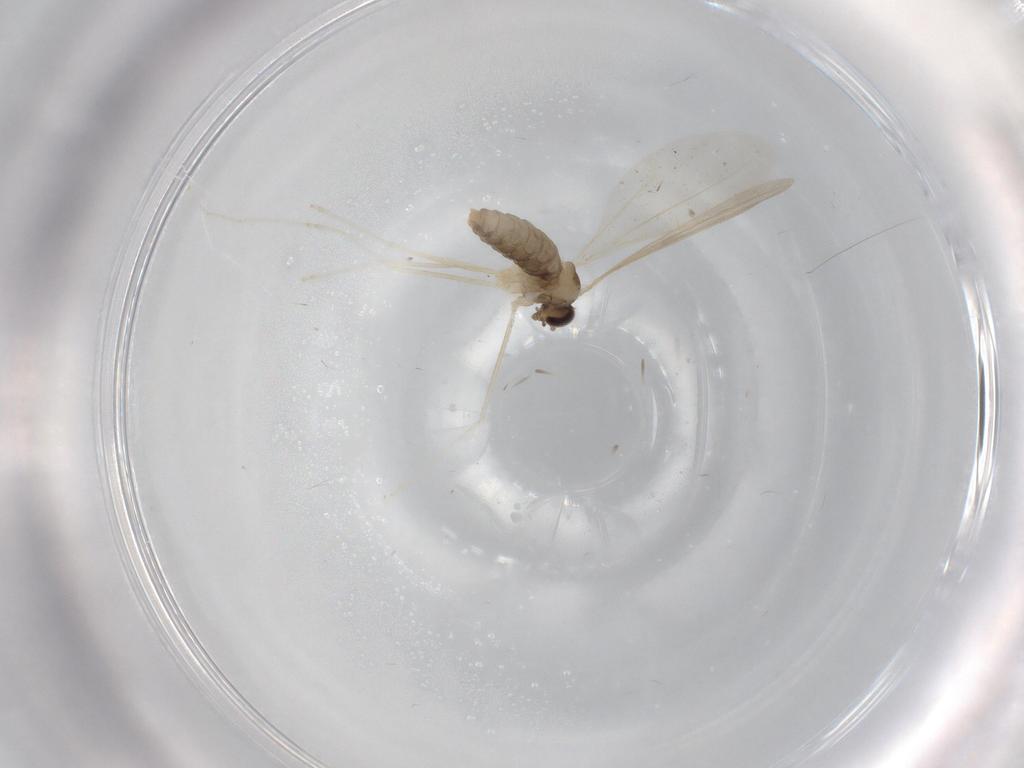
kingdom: Animalia
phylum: Arthropoda
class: Insecta
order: Diptera
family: Cecidomyiidae
